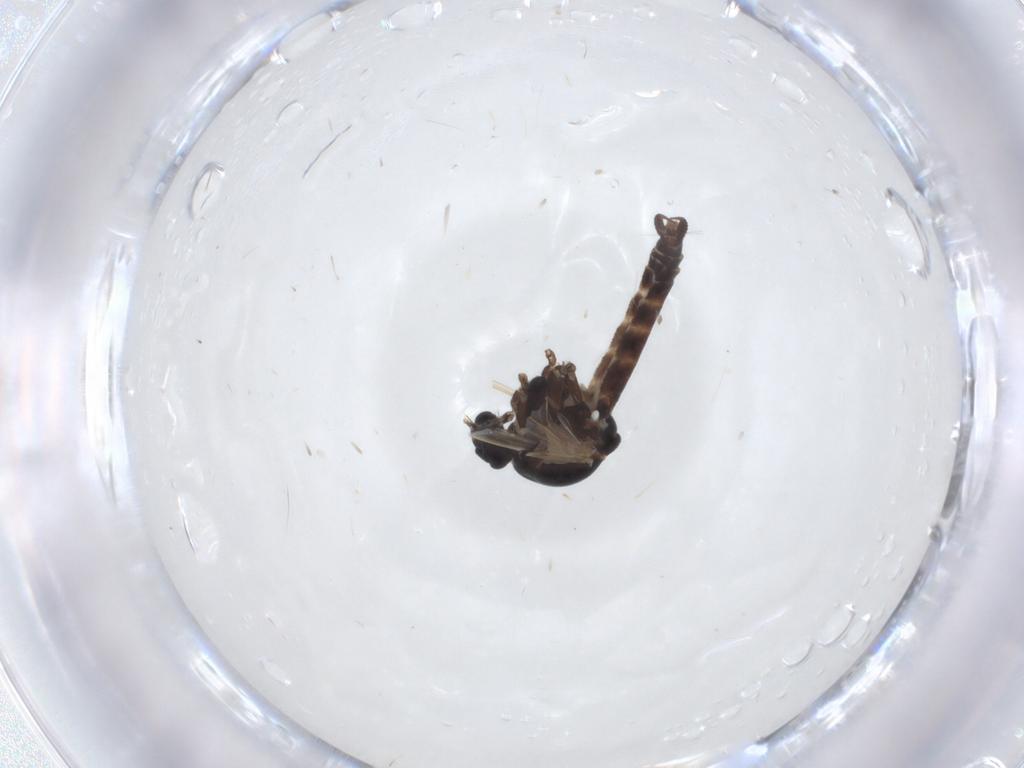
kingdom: Animalia
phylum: Arthropoda
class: Insecta
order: Diptera
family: Ceratopogonidae
